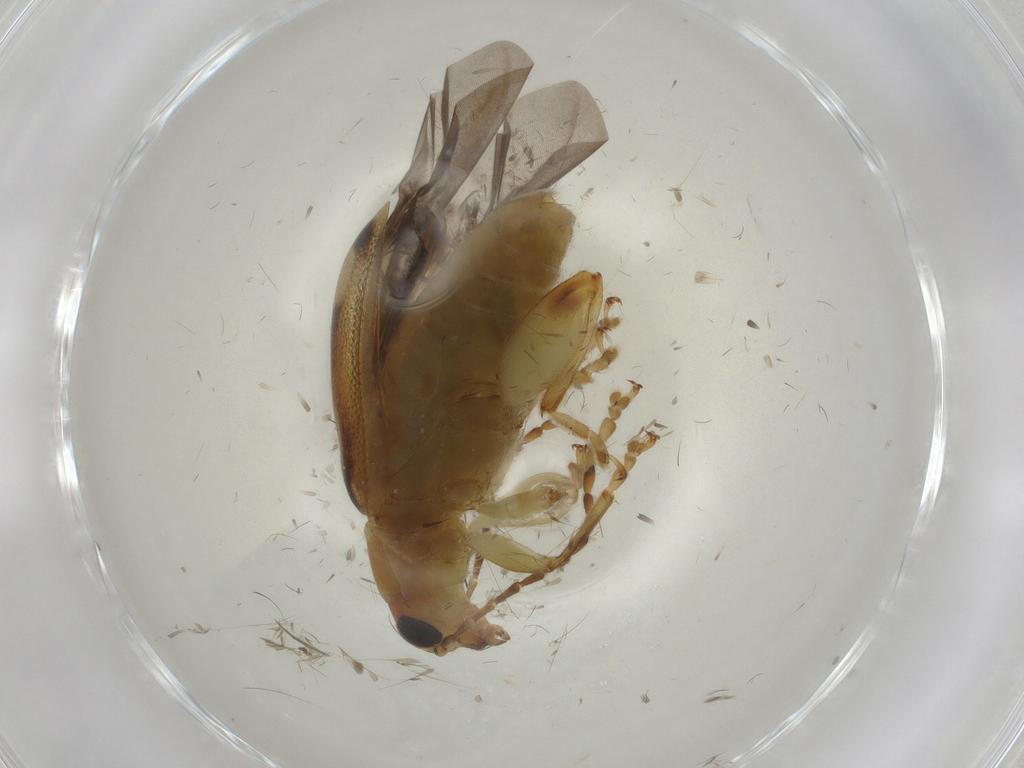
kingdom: Animalia
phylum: Arthropoda
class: Insecta
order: Coleoptera
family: Chrysomelidae
